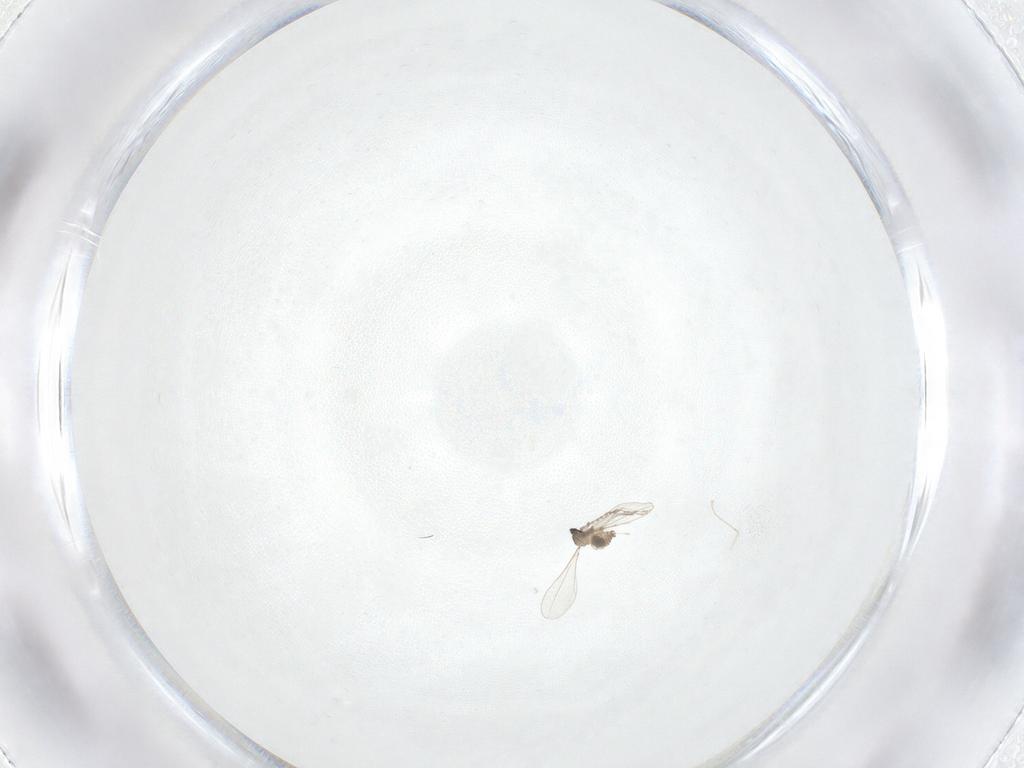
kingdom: Animalia
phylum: Arthropoda
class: Insecta
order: Diptera
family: Cecidomyiidae
